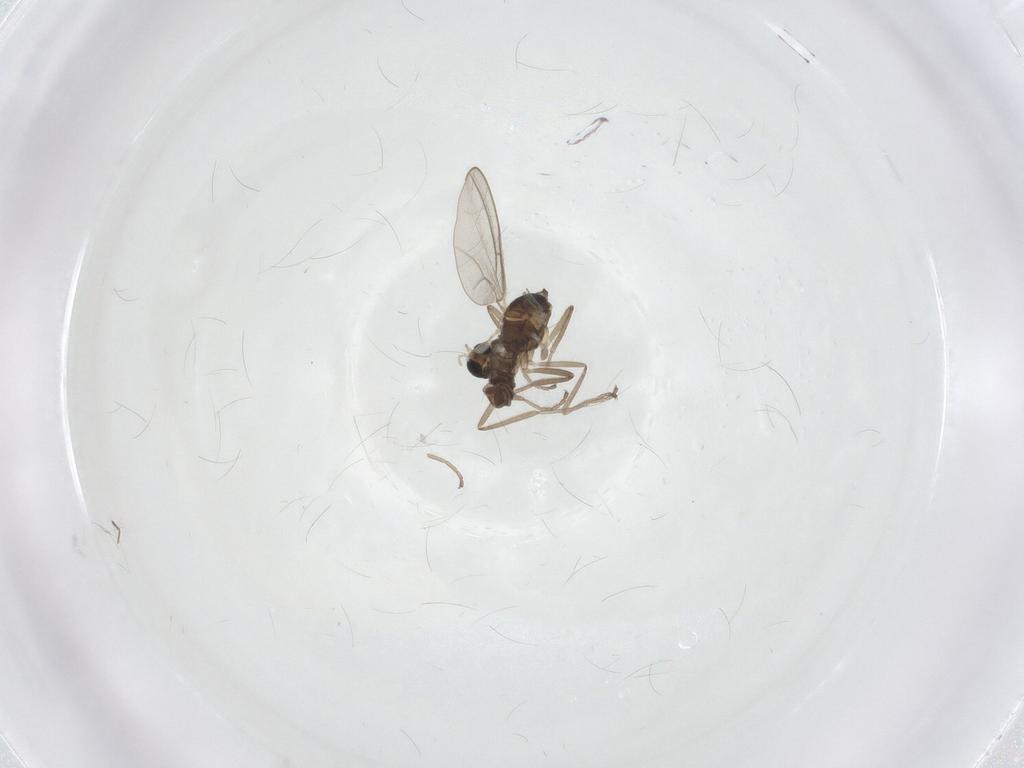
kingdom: Animalia
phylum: Arthropoda
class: Insecta
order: Diptera
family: Cecidomyiidae
